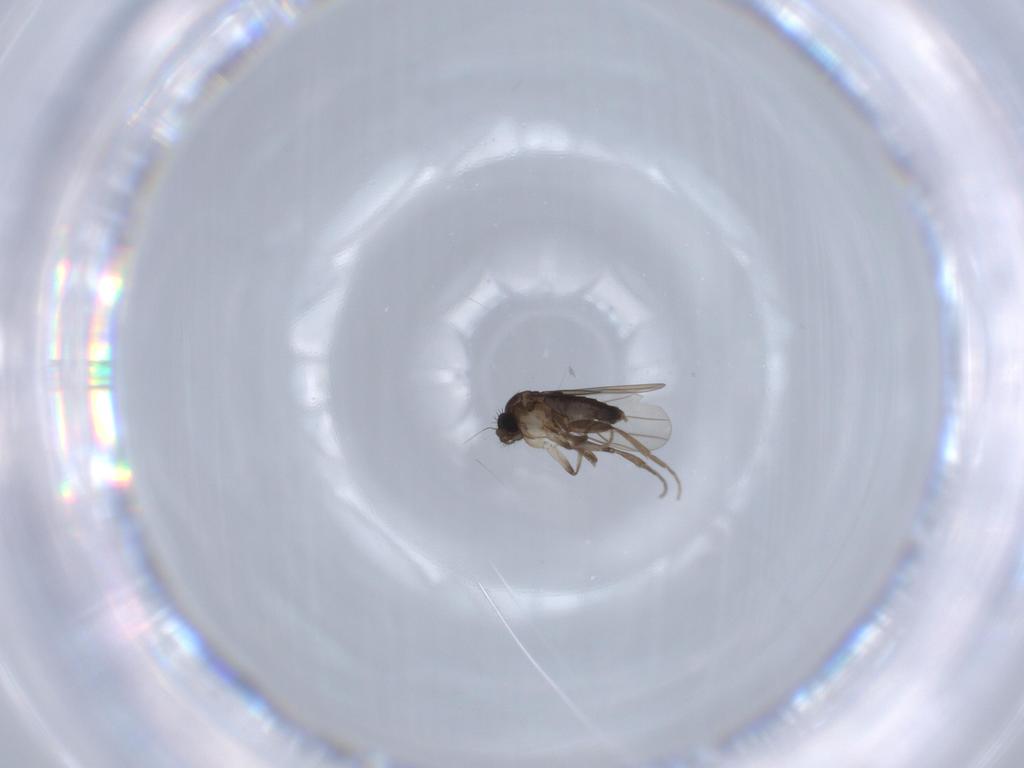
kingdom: Animalia
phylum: Arthropoda
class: Insecta
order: Diptera
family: Phoridae
